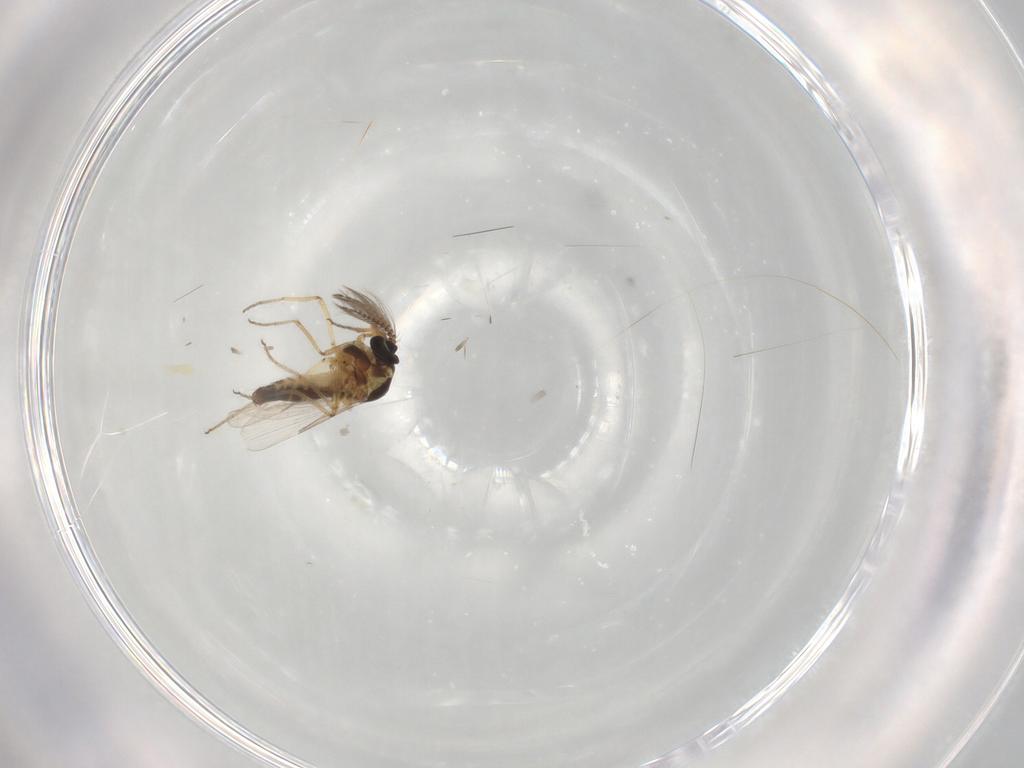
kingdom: Animalia
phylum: Arthropoda
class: Insecta
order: Diptera
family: Ceratopogonidae
